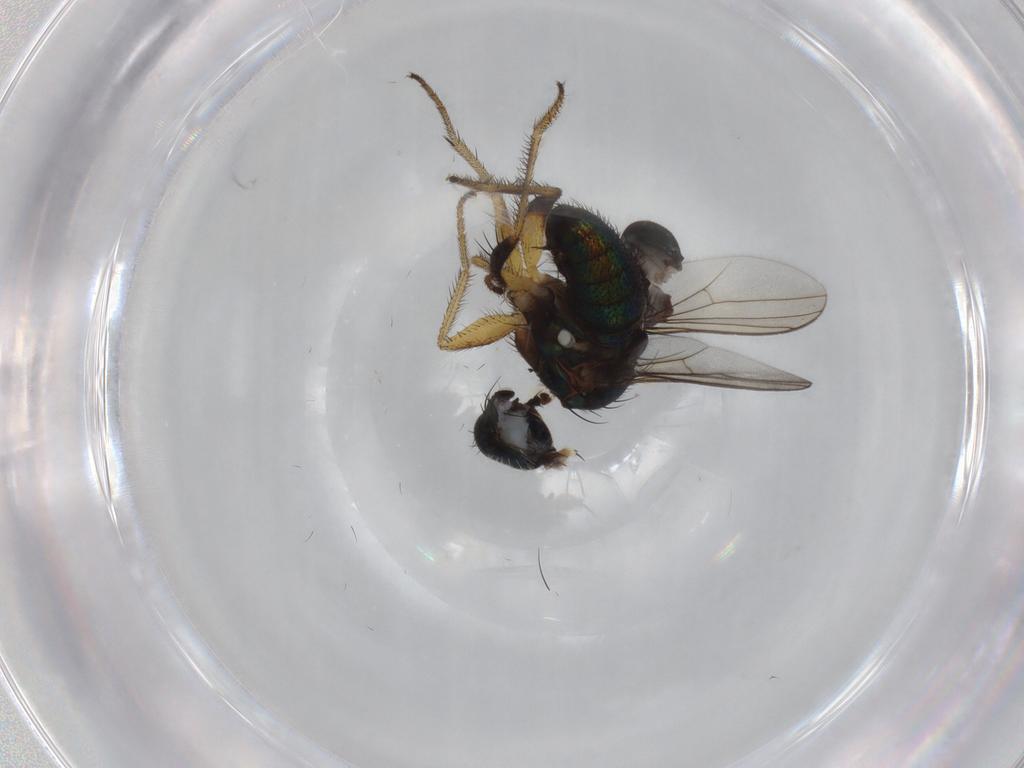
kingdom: Animalia
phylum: Arthropoda
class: Insecta
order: Diptera
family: Dolichopodidae
